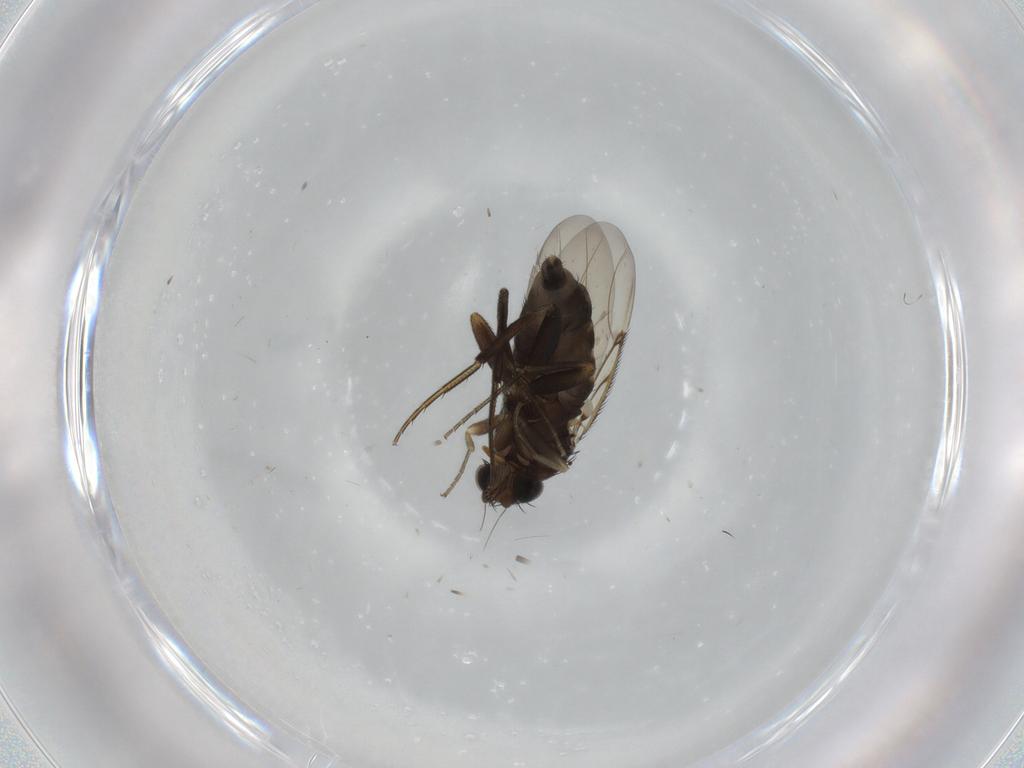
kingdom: Animalia
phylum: Arthropoda
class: Insecta
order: Diptera
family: Phoridae
